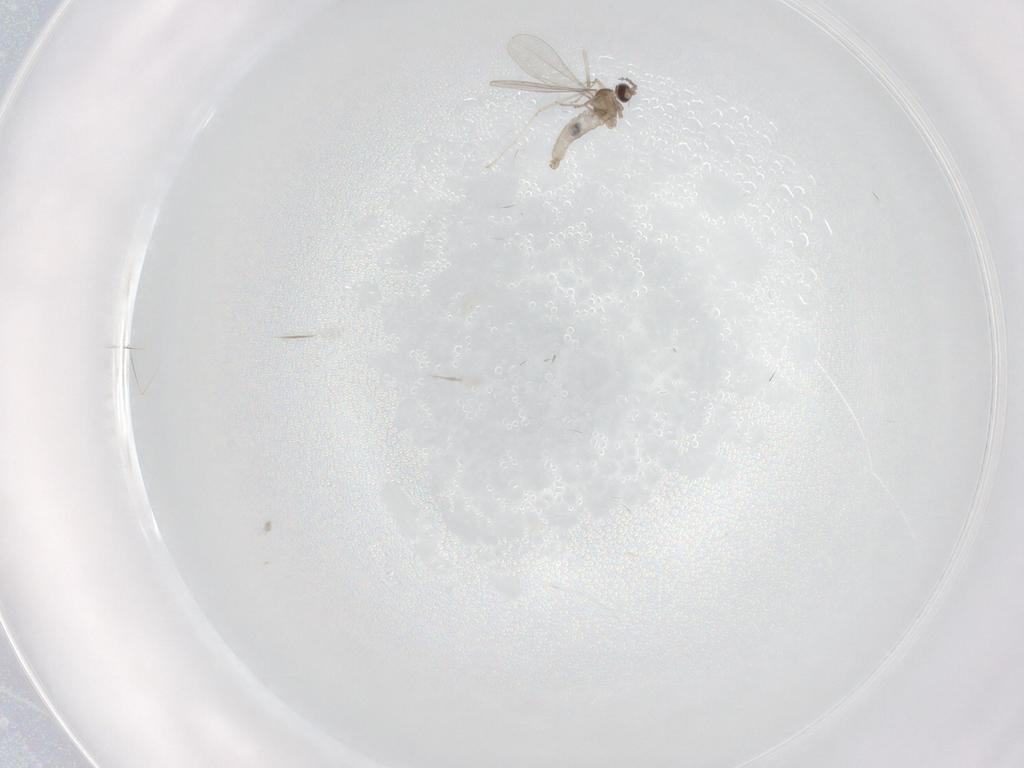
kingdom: Animalia
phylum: Arthropoda
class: Insecta
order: Diptera
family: Cecidomyiidae
